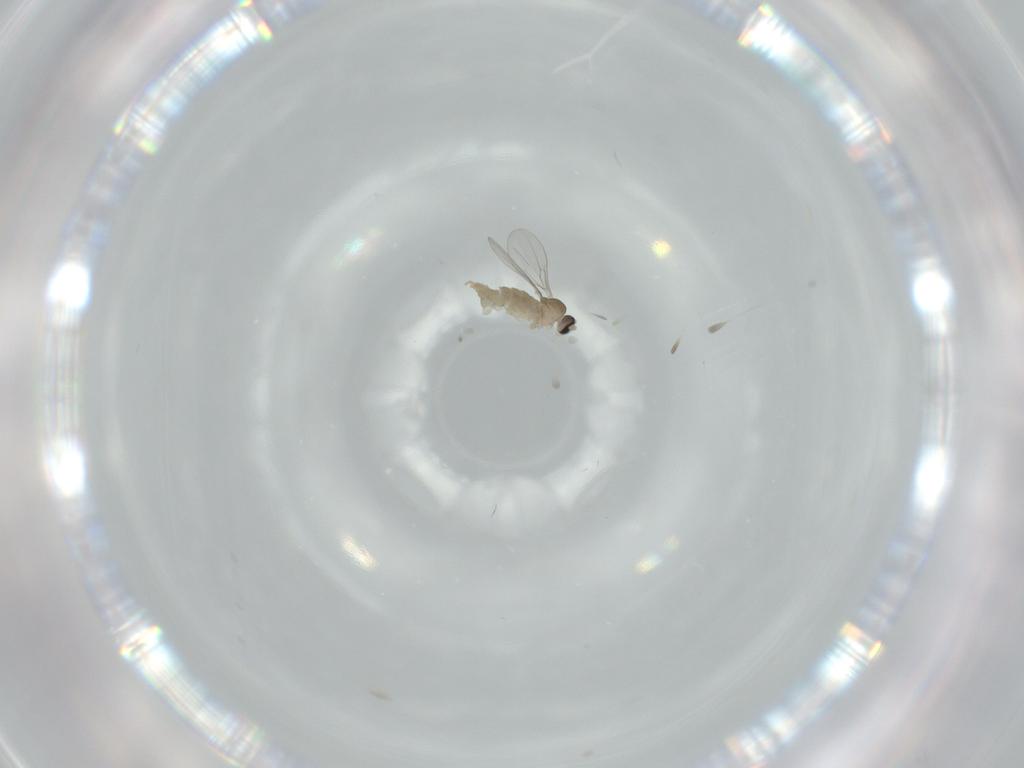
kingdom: Animalia
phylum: Arthropoda
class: Insecta
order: Diptera
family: Cecidomyiidae
